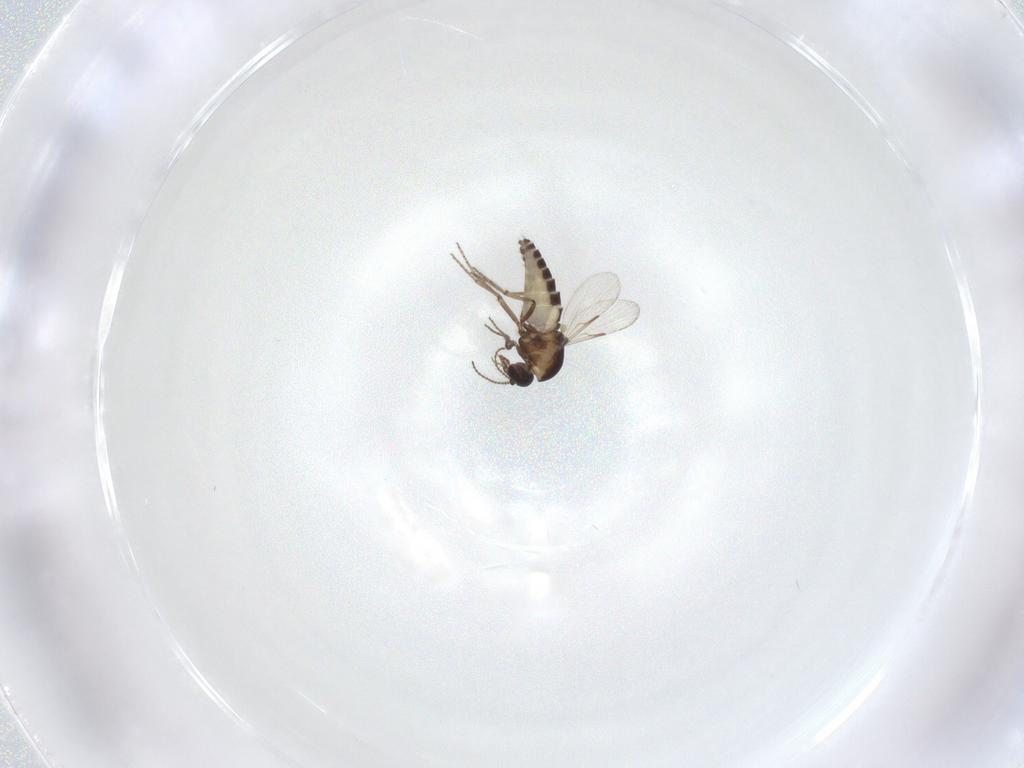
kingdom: Animalia
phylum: Arthropoda
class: Insecta
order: Diptera
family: Ceratopogonidae
